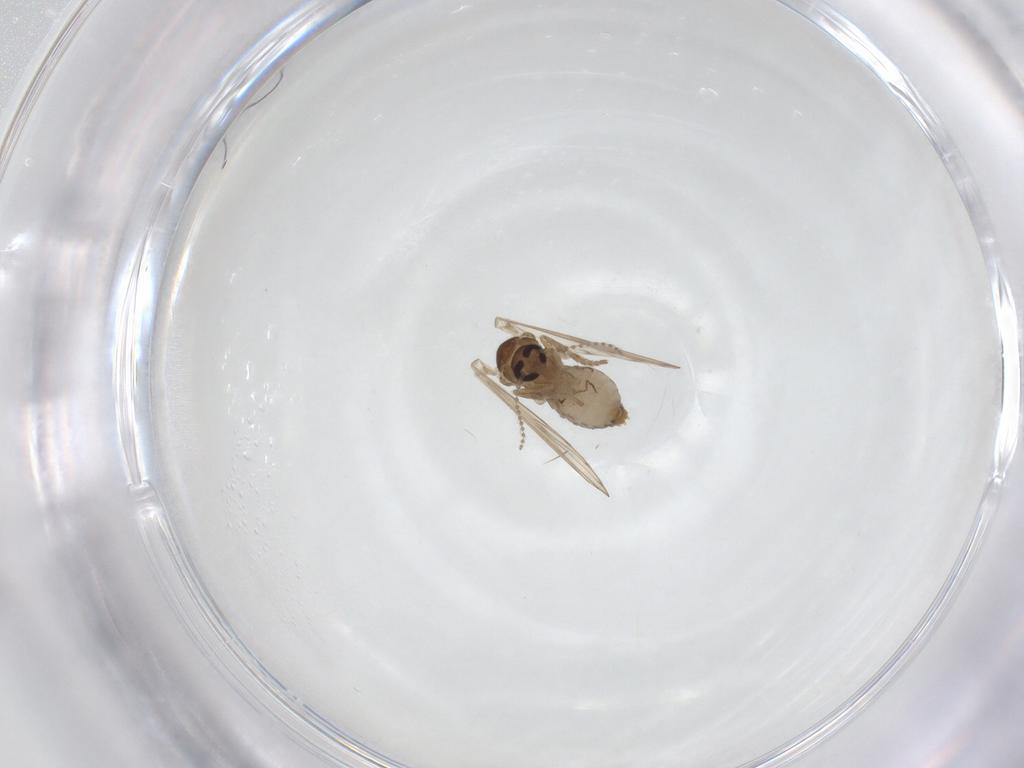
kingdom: Animalia
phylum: Arthropoda
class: Insecta
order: Diptera
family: Psychodidae
